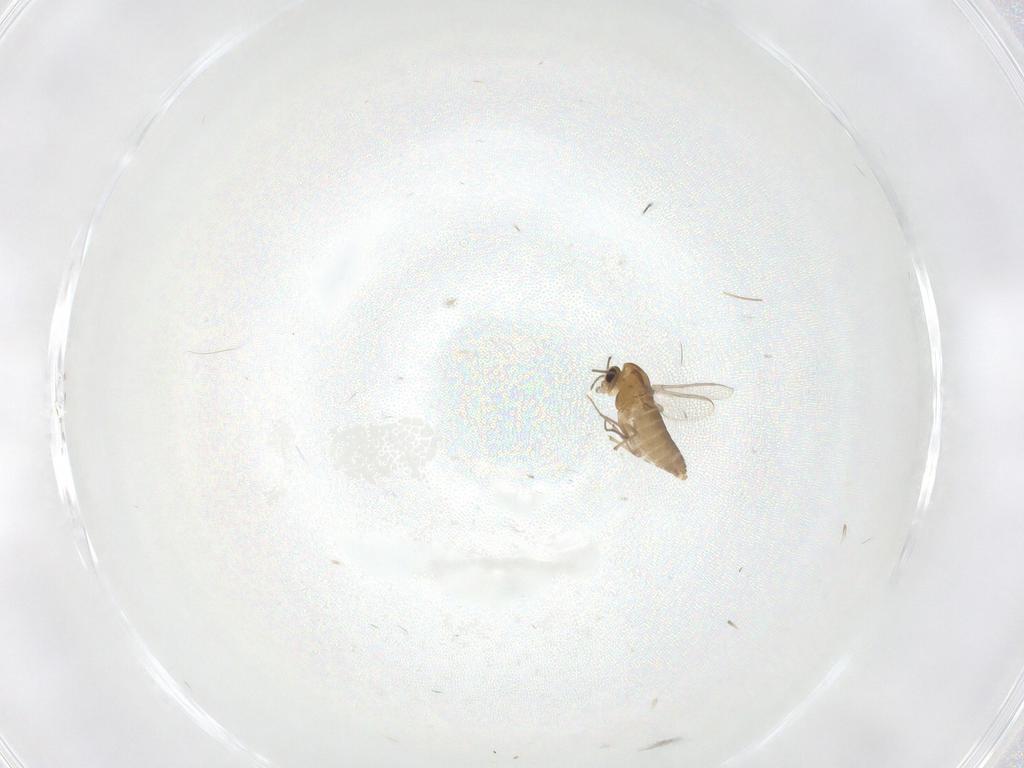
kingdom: Animalia
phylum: Arthropoda
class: Insecta
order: Diptera
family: Chironomidae
